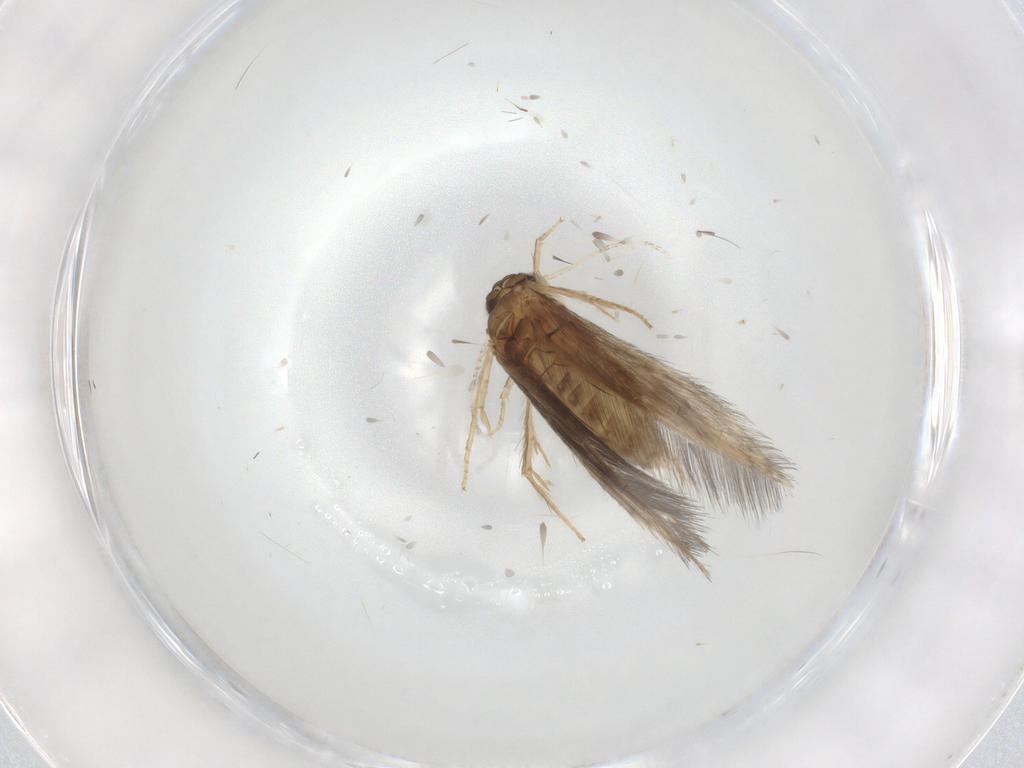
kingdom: Animalia
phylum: Arthropoda
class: Insecta
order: Trichoptera
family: Hydroptilidae
